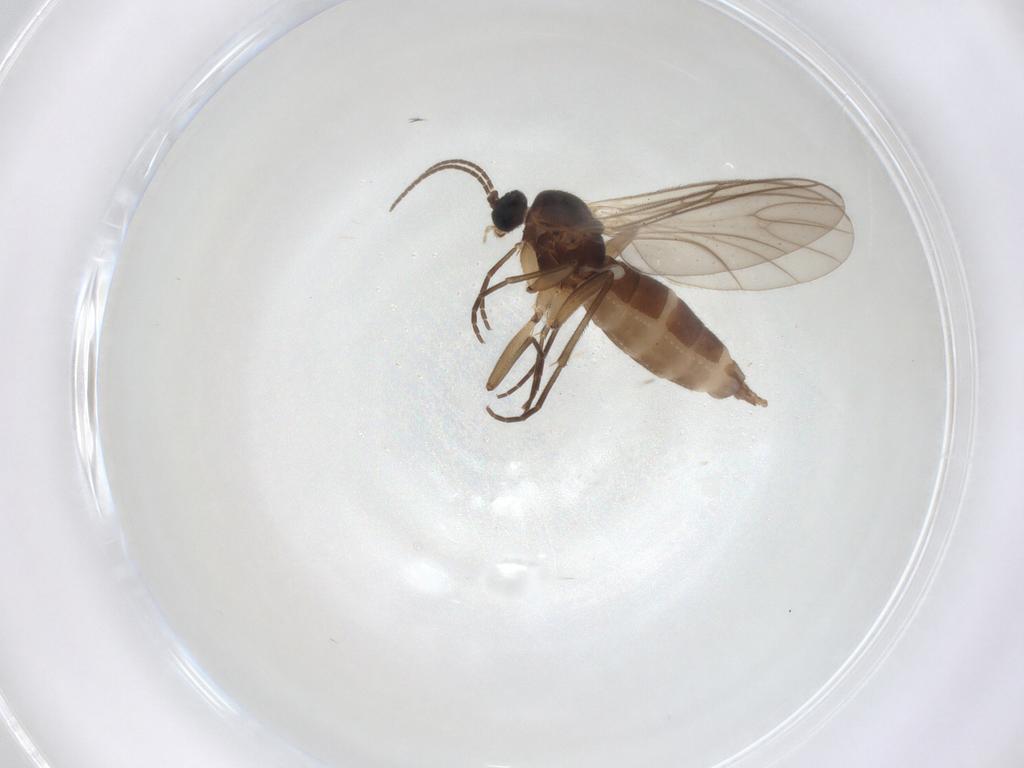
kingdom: Animalia
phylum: Arthropoda
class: Insecta
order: Diptera
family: Sciaridae
